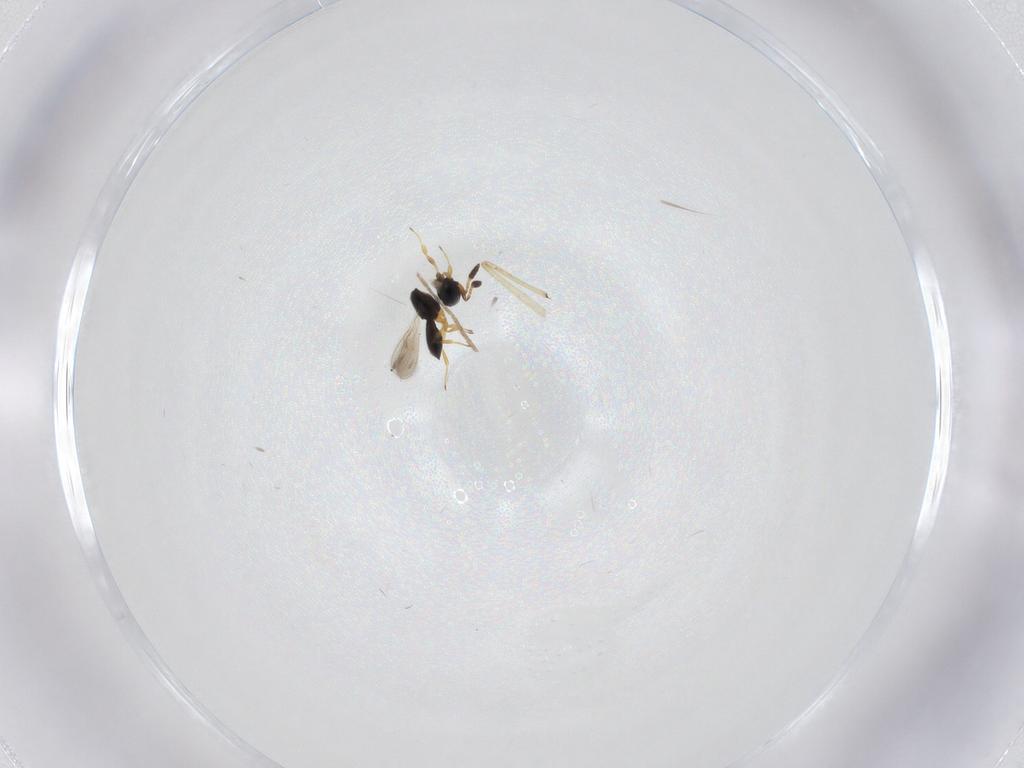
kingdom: Animalia
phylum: Arthropoda
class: Insecta
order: Hymenoptera
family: Scelionidae
